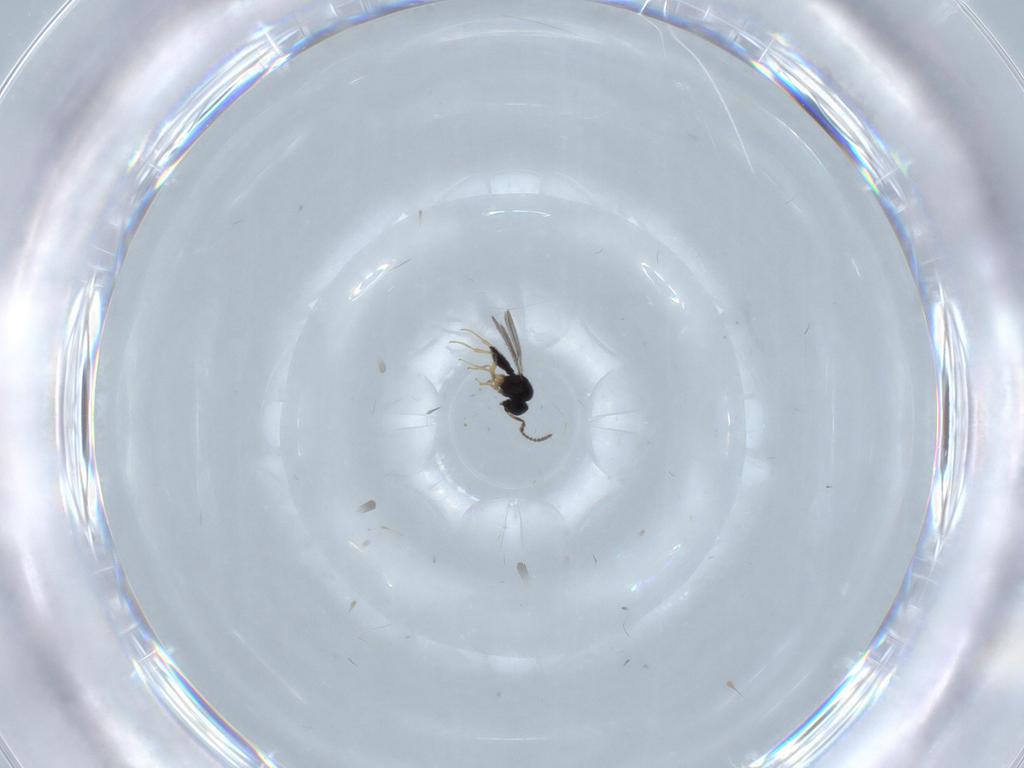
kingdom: Animalia
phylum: Arthropoda
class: Insecta
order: Hymenoptera
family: Scelionidae
